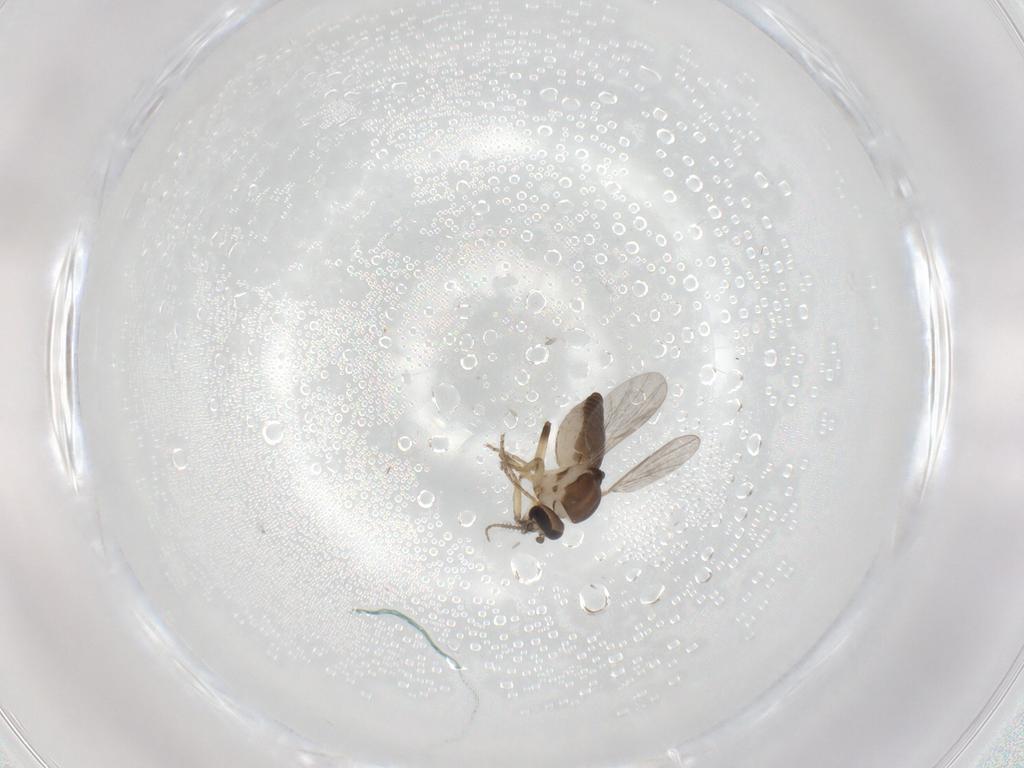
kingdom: Animalia
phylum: Arthropoda
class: Insecta
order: Diptera
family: Ceratopogonidae
